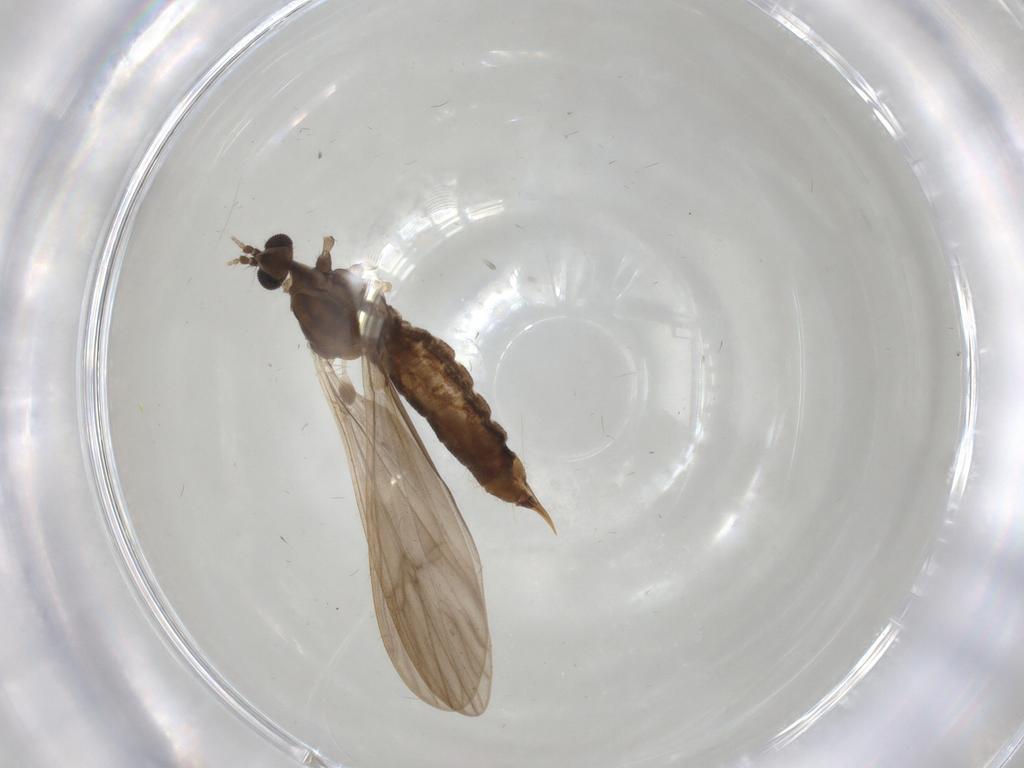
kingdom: Animalia
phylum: Arthropoda
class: Insecta
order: Diptera
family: Limoniidae
